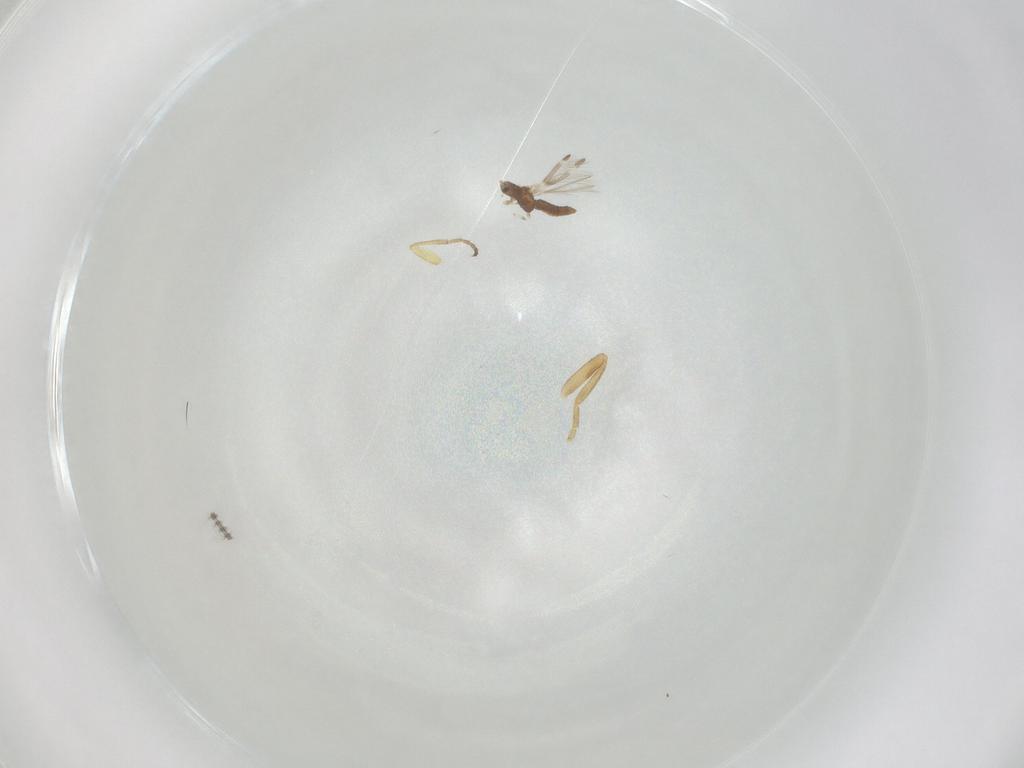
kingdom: Animalia
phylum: Arthropoda
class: Insecta
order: Diptera
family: Chloropidae
